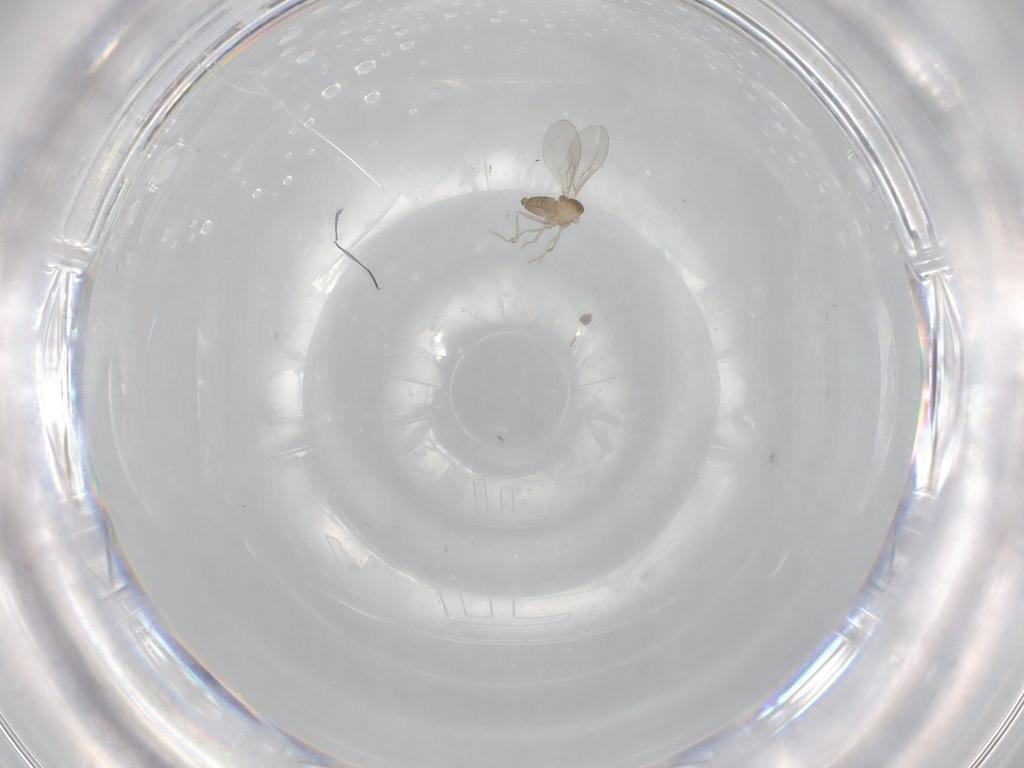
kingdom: Animalia
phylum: Arthropoda
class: Insecta
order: Diptera
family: Cecidomyiidae
